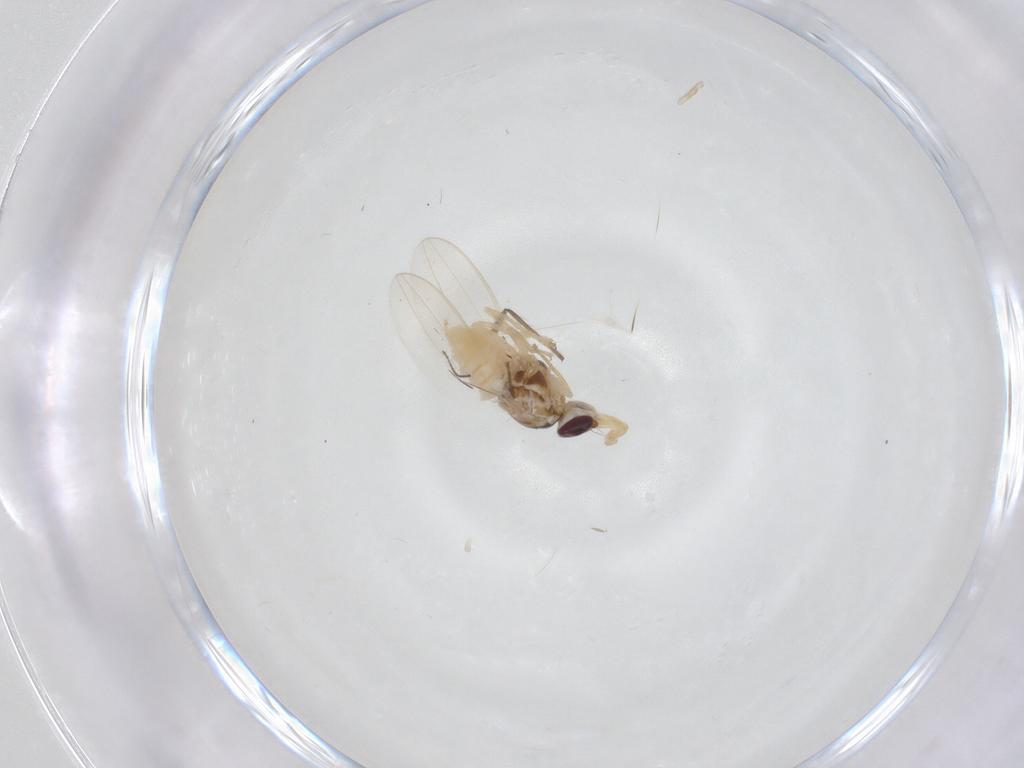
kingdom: Animalia
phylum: Arthropoda
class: Insecta
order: Diptera
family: Chloropidae
